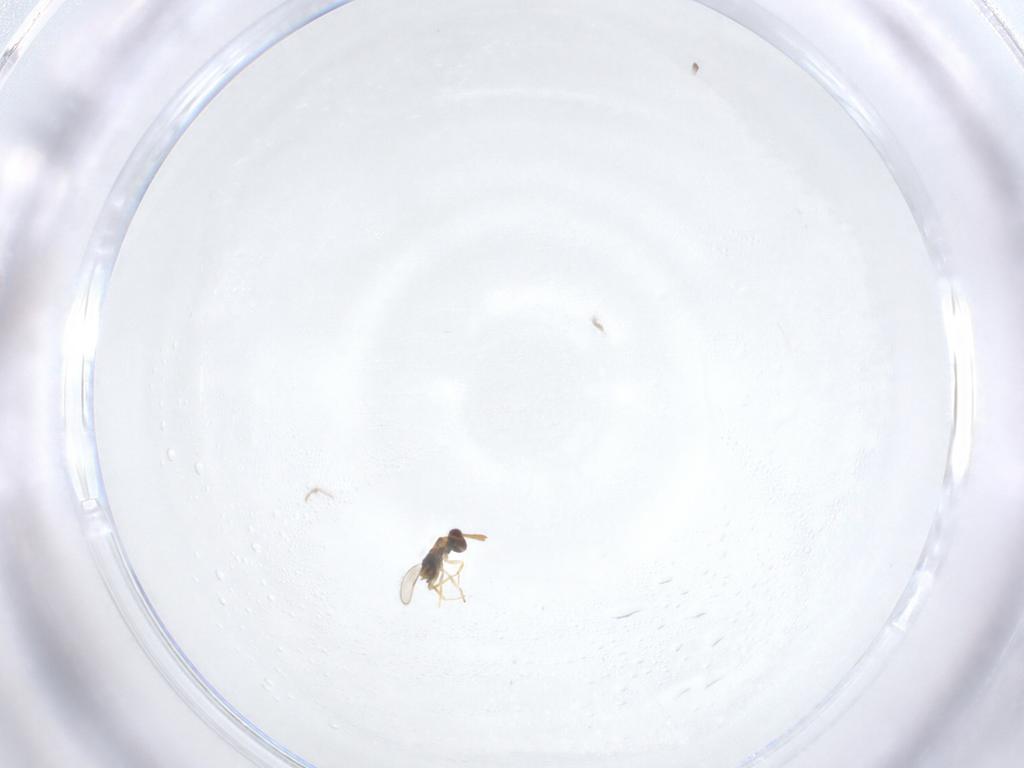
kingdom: Animalia
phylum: Arthropoda
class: Insecta
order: Hymenoptera
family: Aphelinidae
